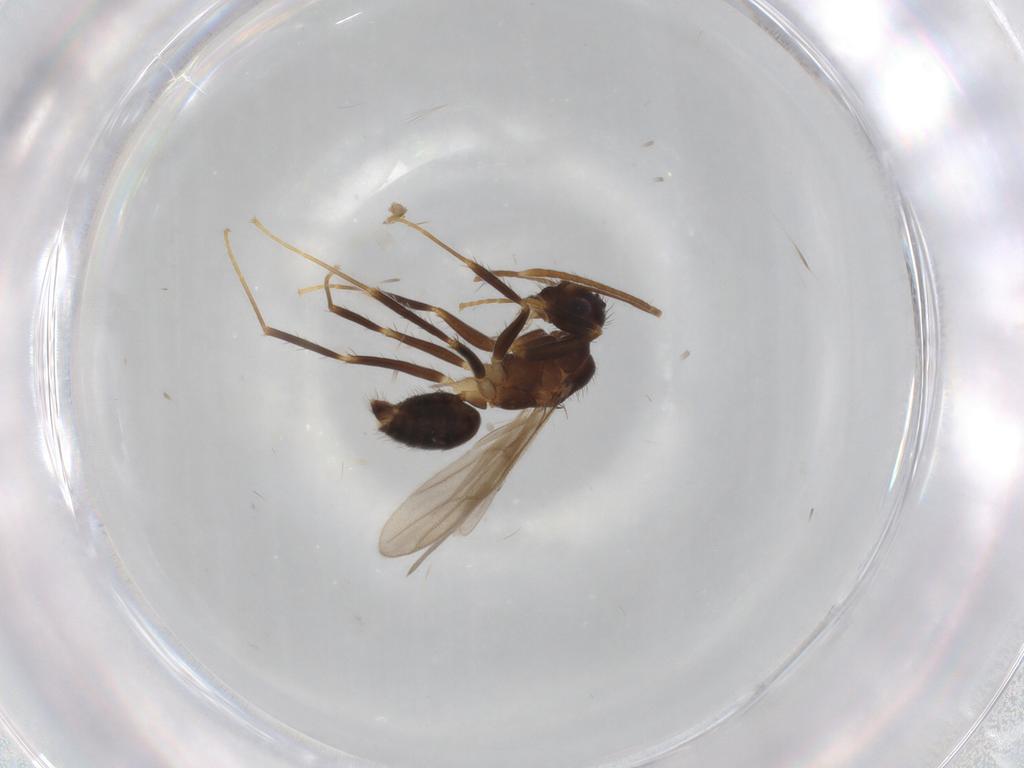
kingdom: Animalia
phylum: Arthropoda
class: Insecta
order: Hymenoptera
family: Formicidae
